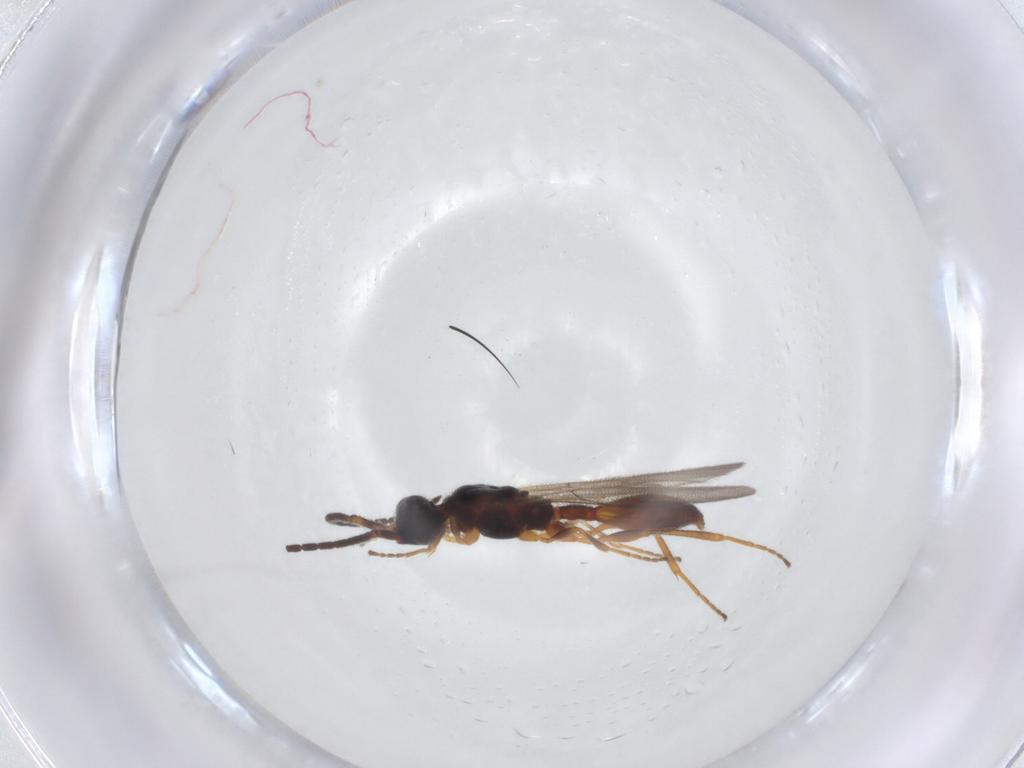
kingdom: Animalia
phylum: Arthropoda
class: Insecta
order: Hymenoptera
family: Diapriidae
